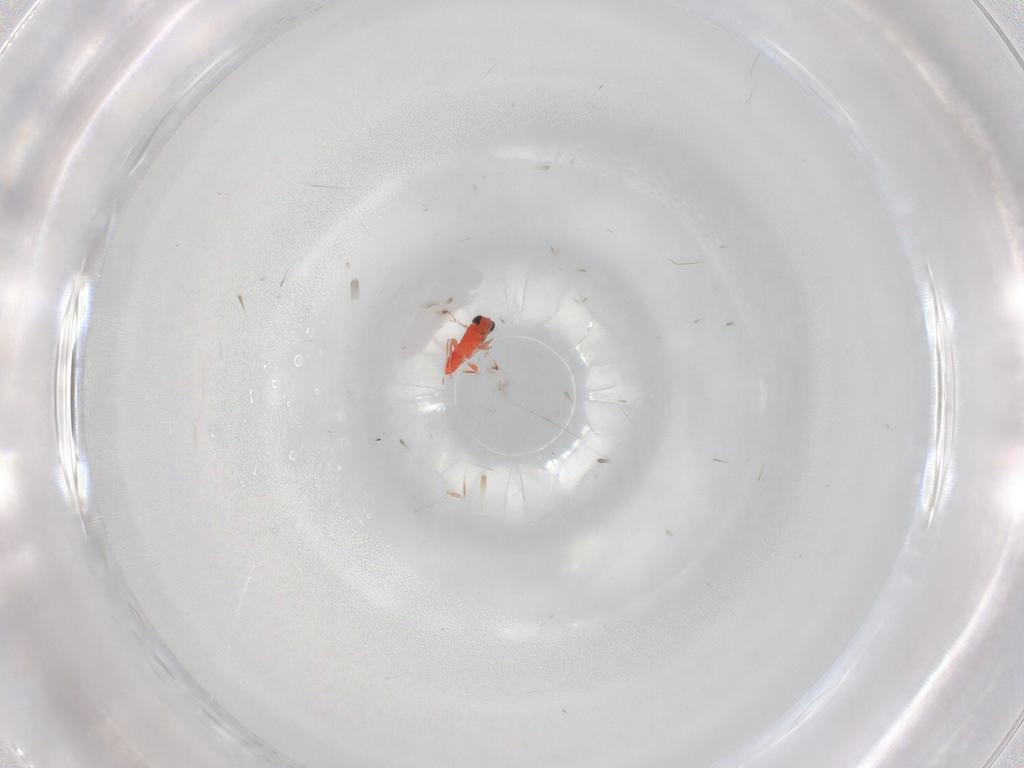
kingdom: Animalia
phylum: Arthropoda
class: Insecta
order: Hymenoptera
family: Trichogrammatidae
